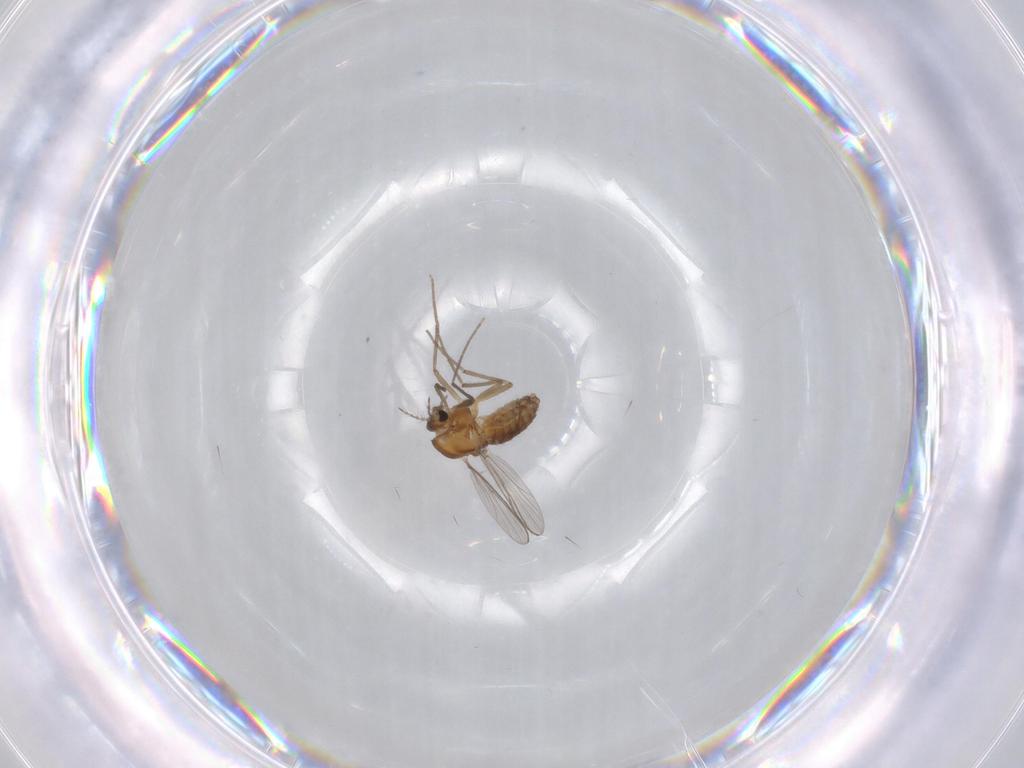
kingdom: Animalia
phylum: Arthropoda
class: Insecta
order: Diptera
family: Chironomidae
